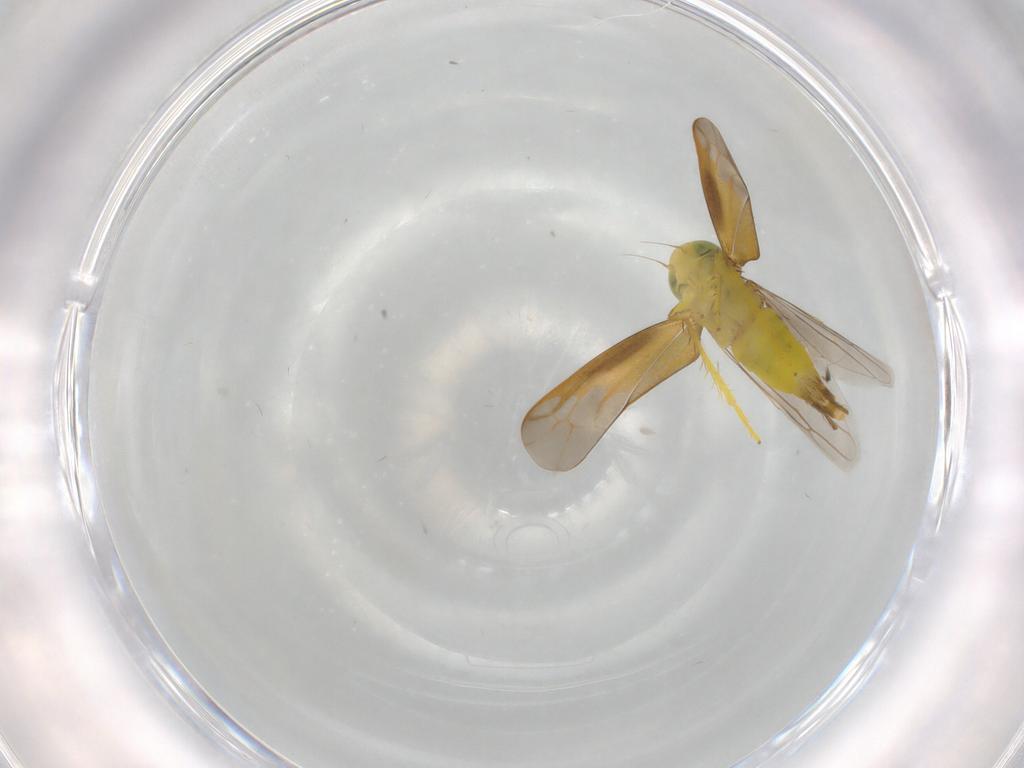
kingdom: Animalia
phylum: Arthropoda
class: Insecta
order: Hemiptera
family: Cicadellidae
